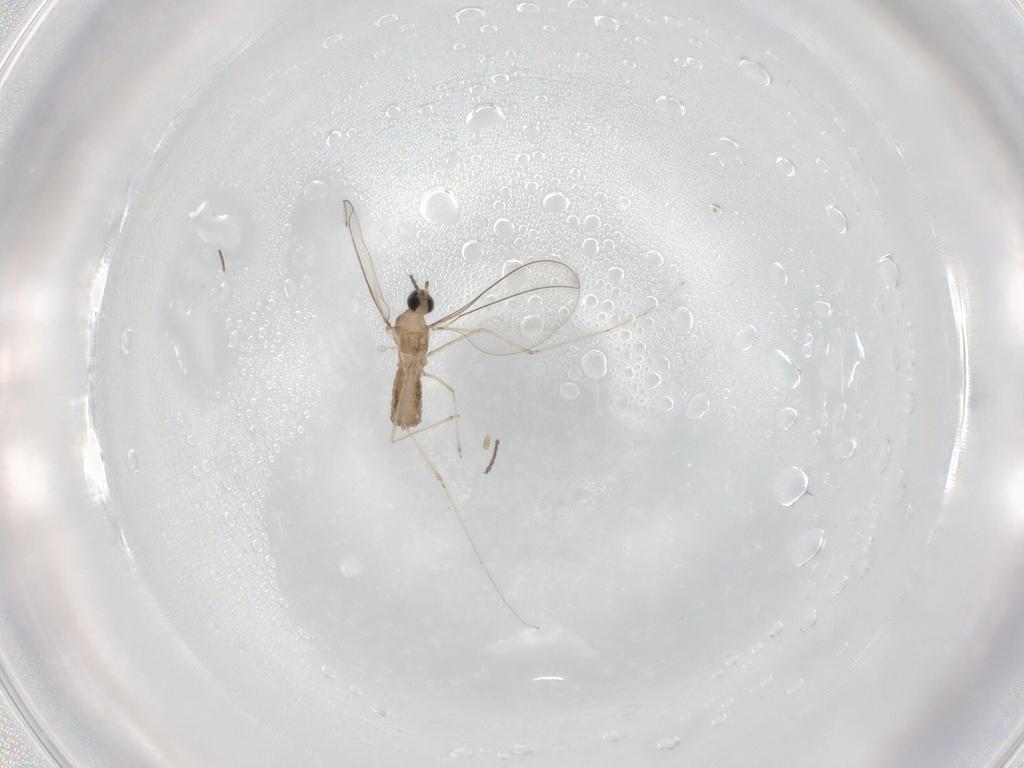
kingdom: Animalia
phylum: Arthropoda
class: Insecta
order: Diptera
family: Cecidomyiidae
